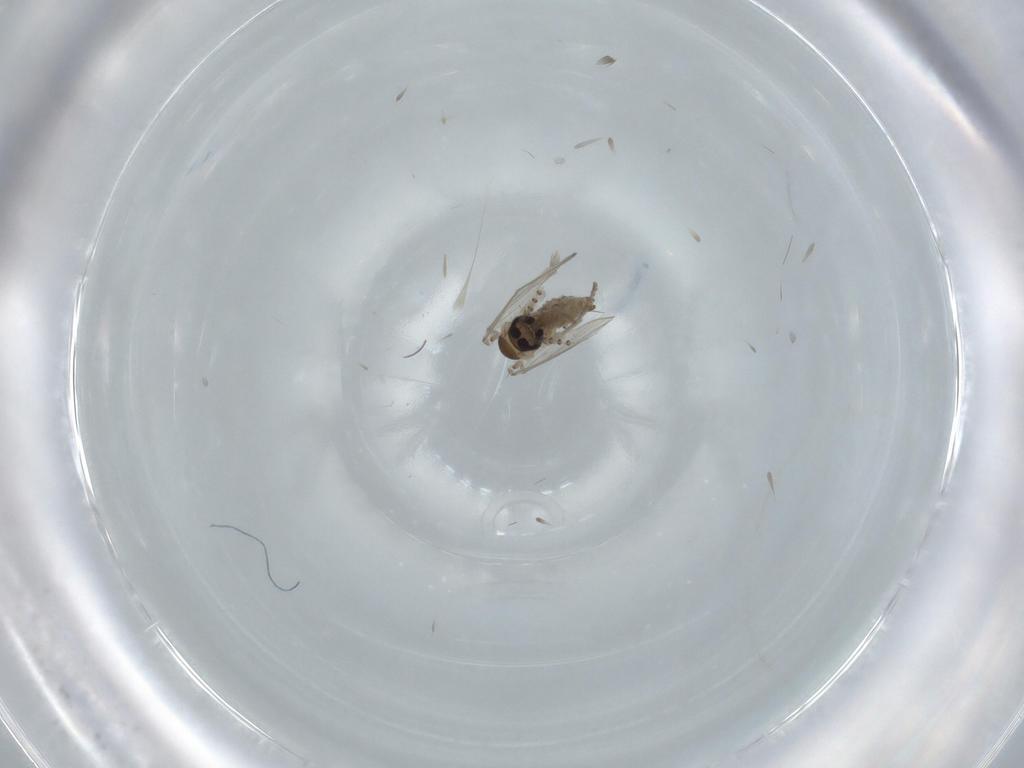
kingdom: Animalia
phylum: Arthropoda
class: Insecta
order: Diptera
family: Psychodidae
